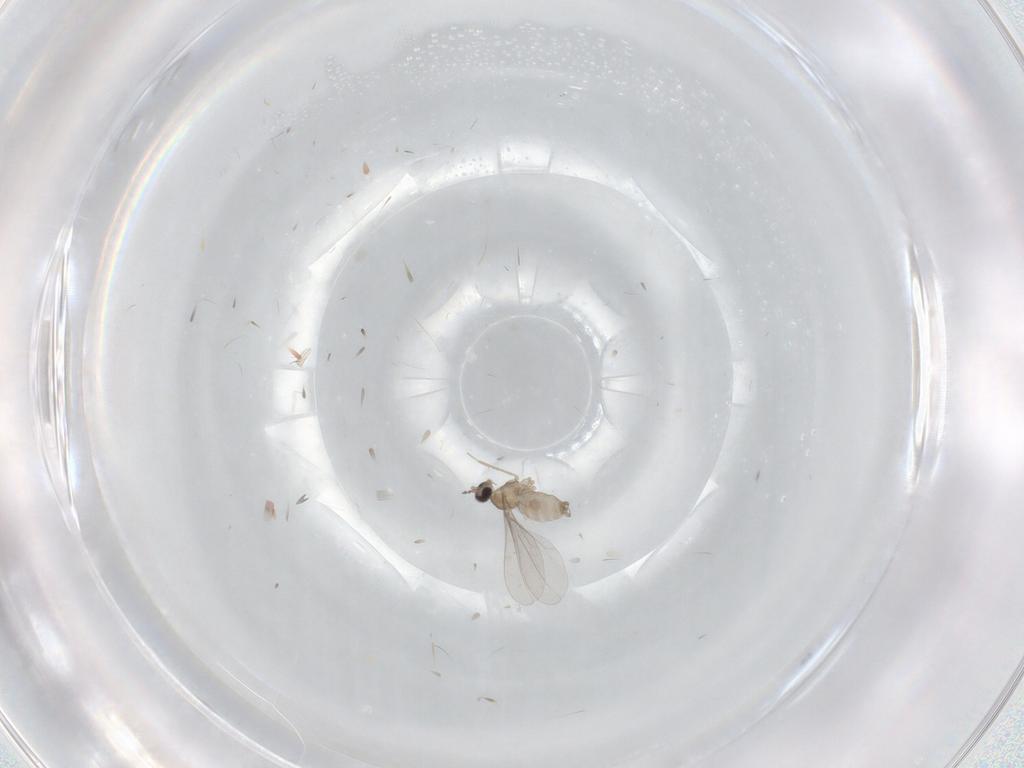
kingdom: Animalia
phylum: Arthropoda
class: Insecta
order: Diptera
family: Cecidomyiidae
